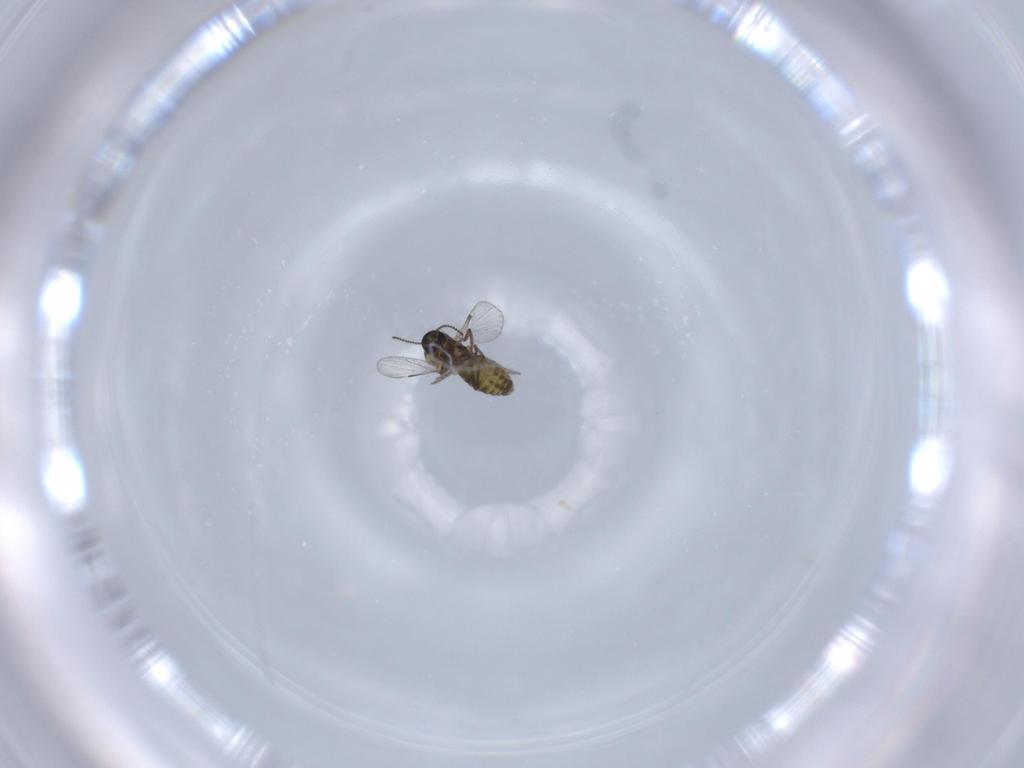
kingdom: Animalia
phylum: Arthropoda
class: Insecta
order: Diptera
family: Ceratopogonidae
